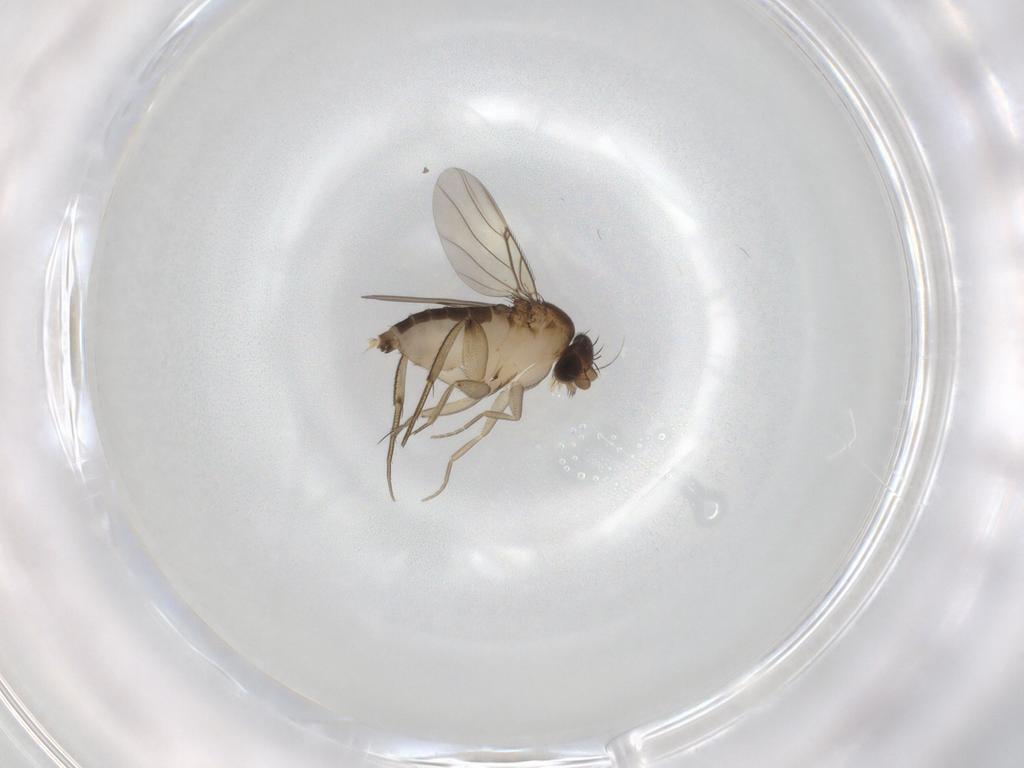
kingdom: Animalia
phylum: Arthropoda
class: Insecta
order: Diptera
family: Phoridae
